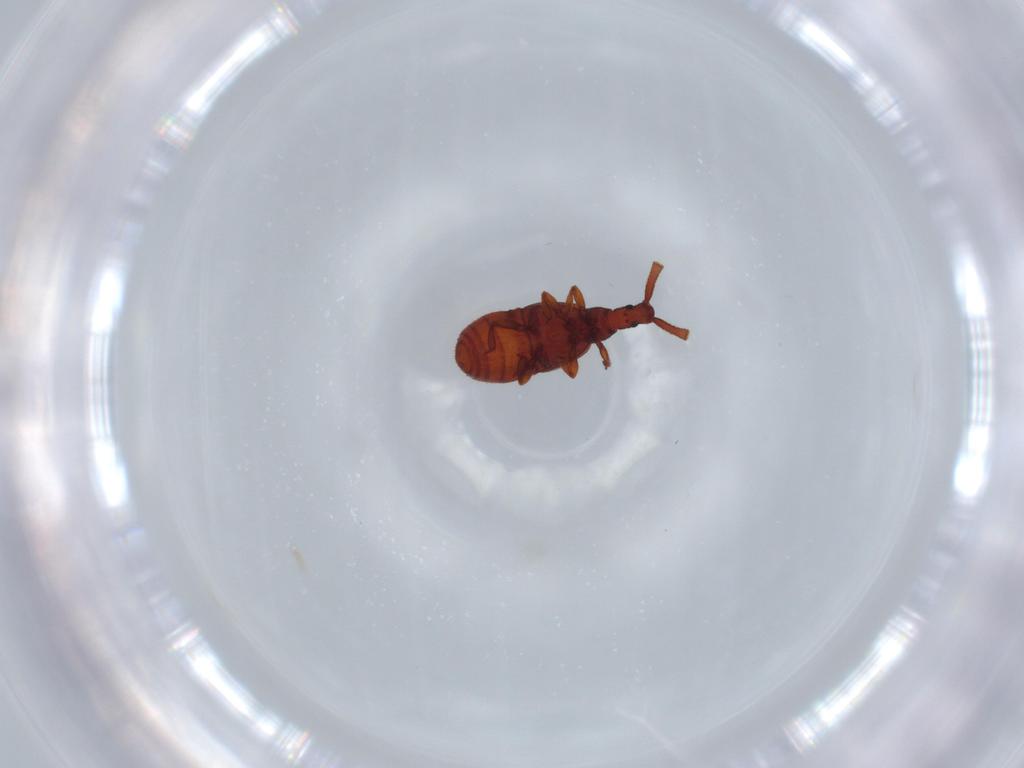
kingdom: Animalia
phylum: Arthropoda
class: Insecta
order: Coleoptera
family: Staphylinidae
